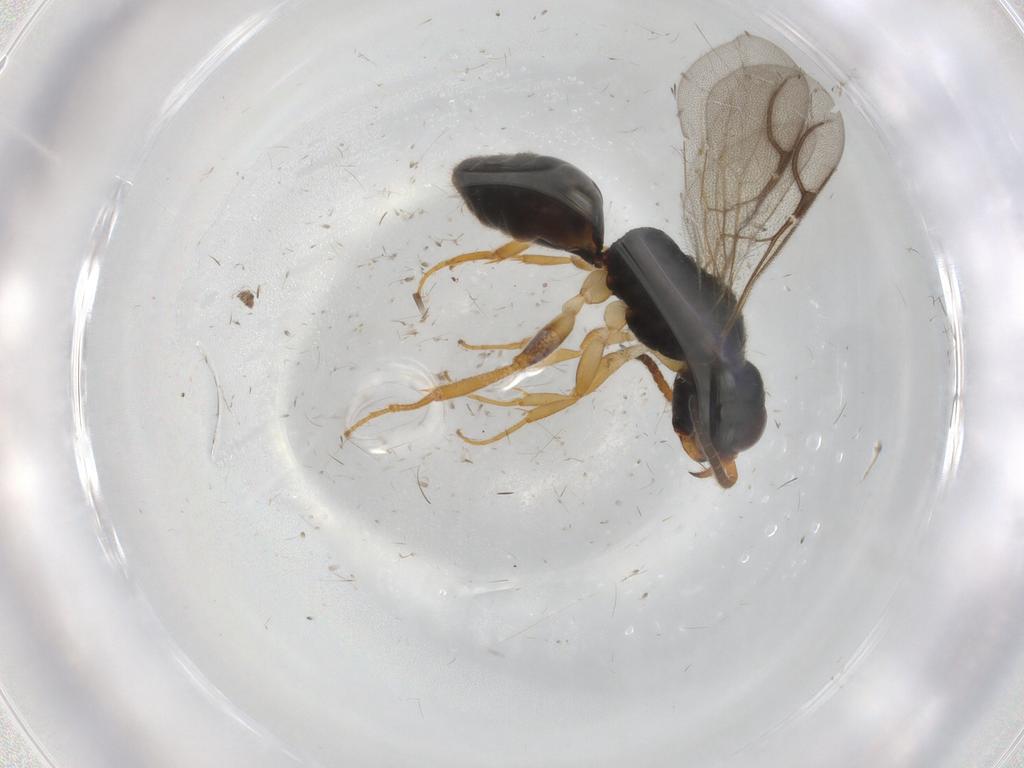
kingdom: Animalia
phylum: Arthropoda
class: Insecta
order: Hymenoptera
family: Bethylidae
